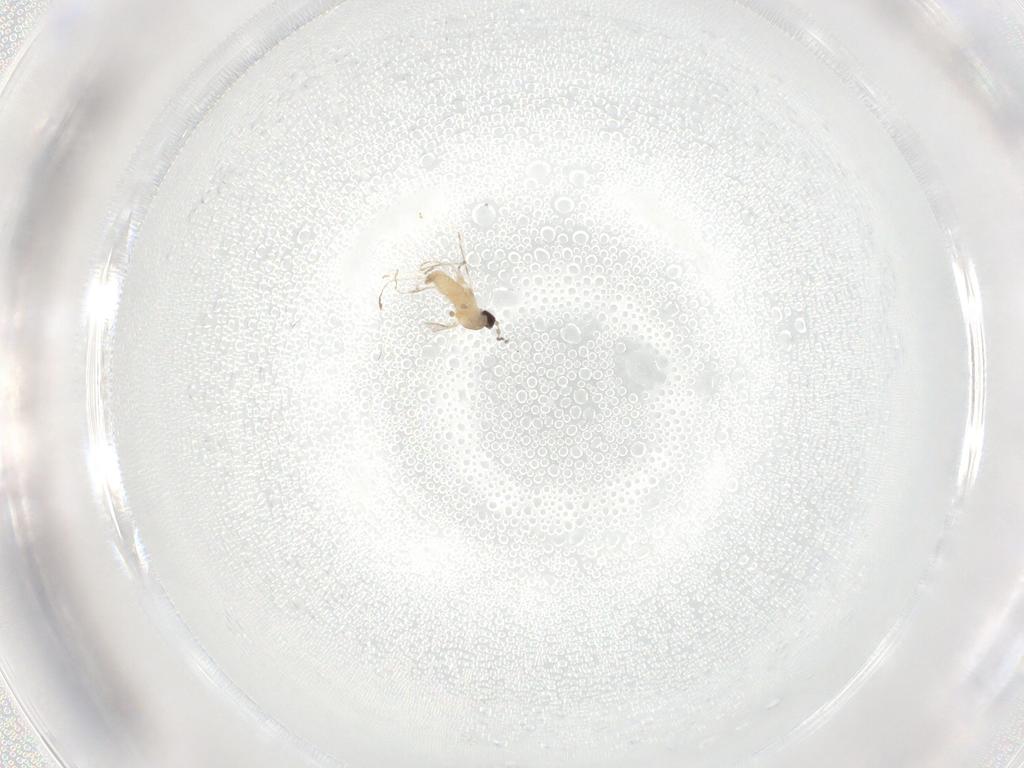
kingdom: Animalia
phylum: Arthropoda
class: Insecta
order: Diptera
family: Cecidomyiidae
